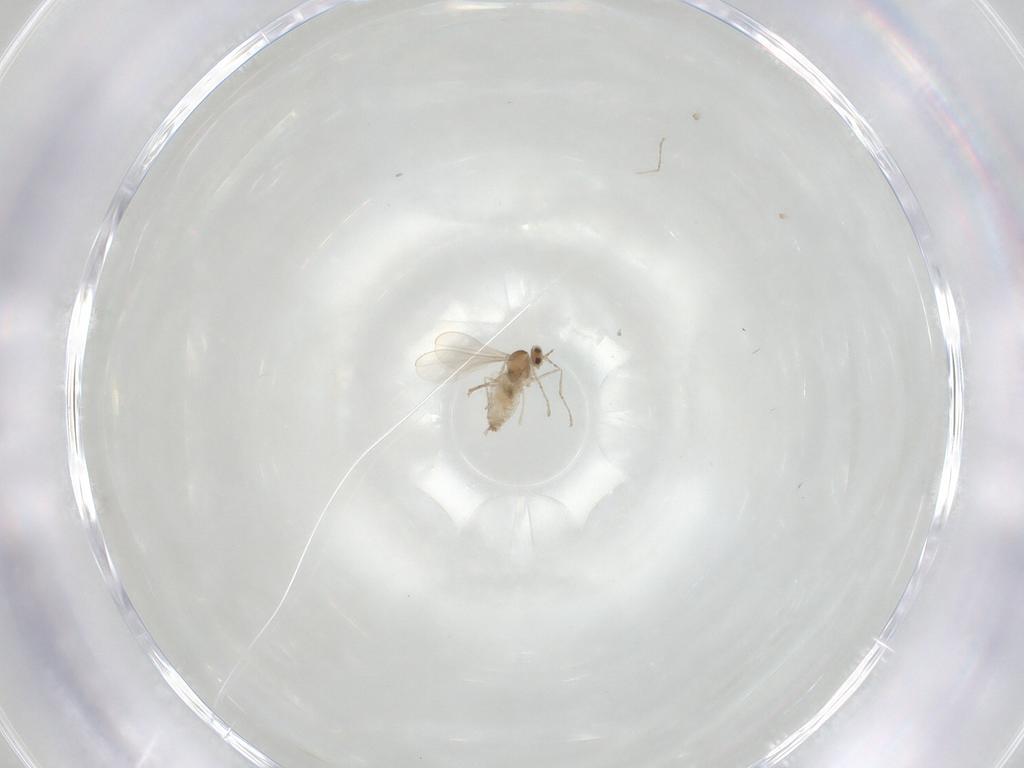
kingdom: Animalia
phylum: Arthropoda
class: Insecta
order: Diptera
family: Cecidomyiidae
